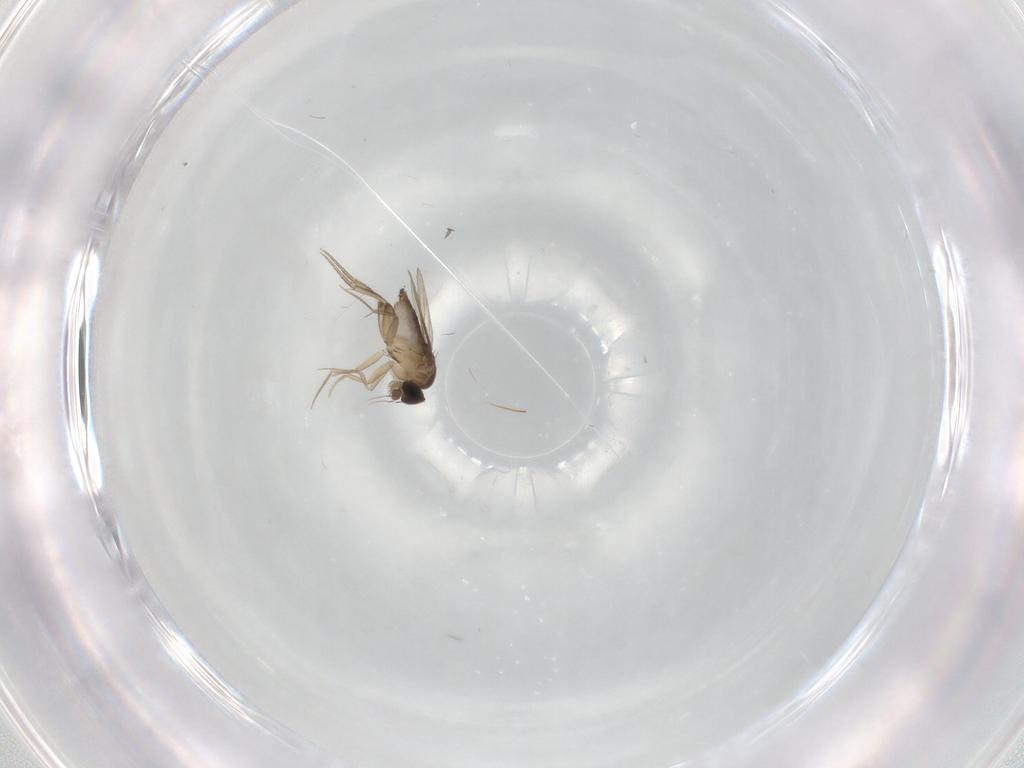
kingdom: Animalia
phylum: Arthropoda
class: Insecta
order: Diptera
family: Phoridae
